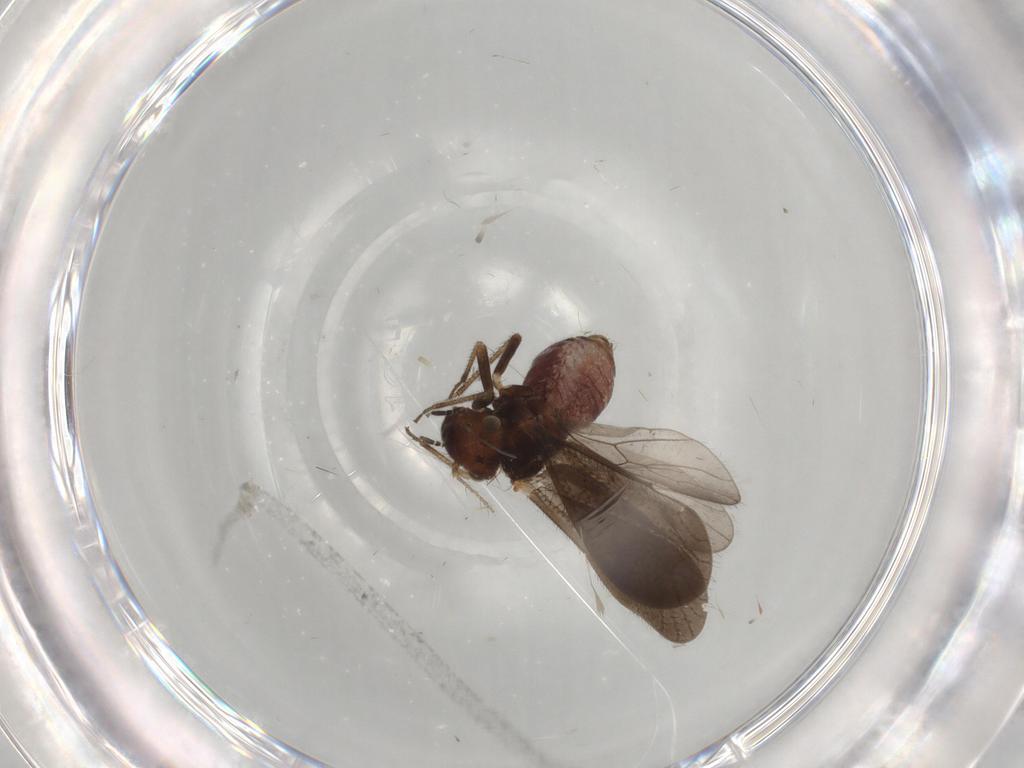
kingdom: Animalia
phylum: Arthropoda
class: Insecta
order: Psocodea
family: Pseudocaeciliidae
